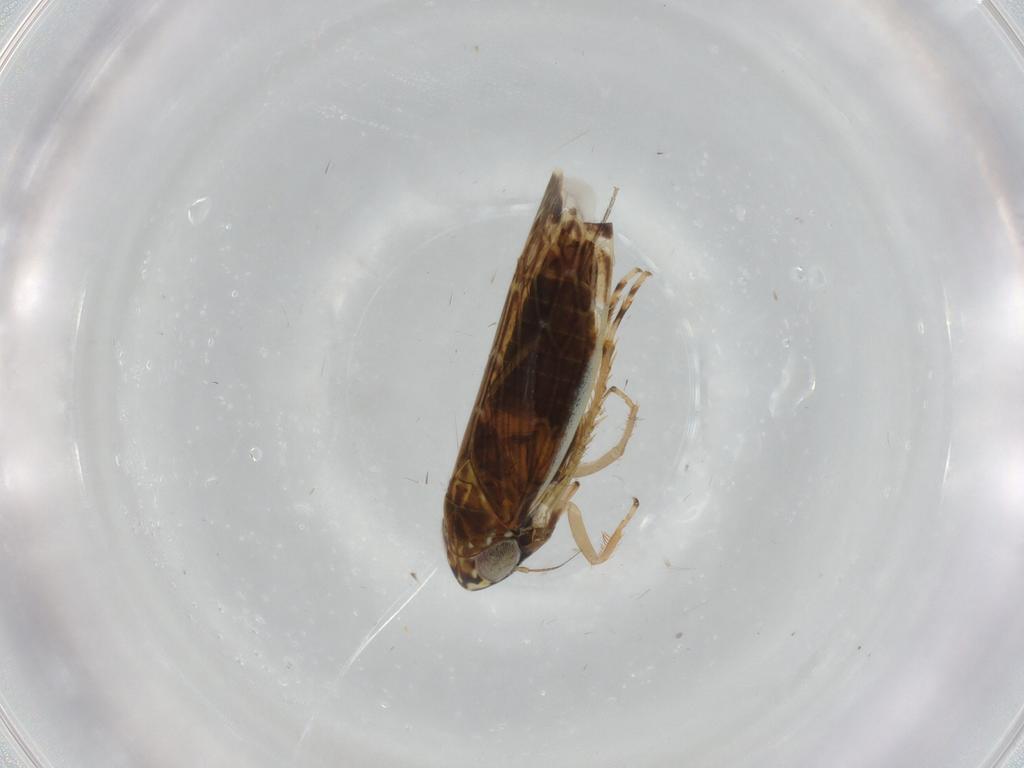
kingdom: Animalia
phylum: Arthropoda
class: Insecta
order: Hemiptera
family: Cicadellidae
